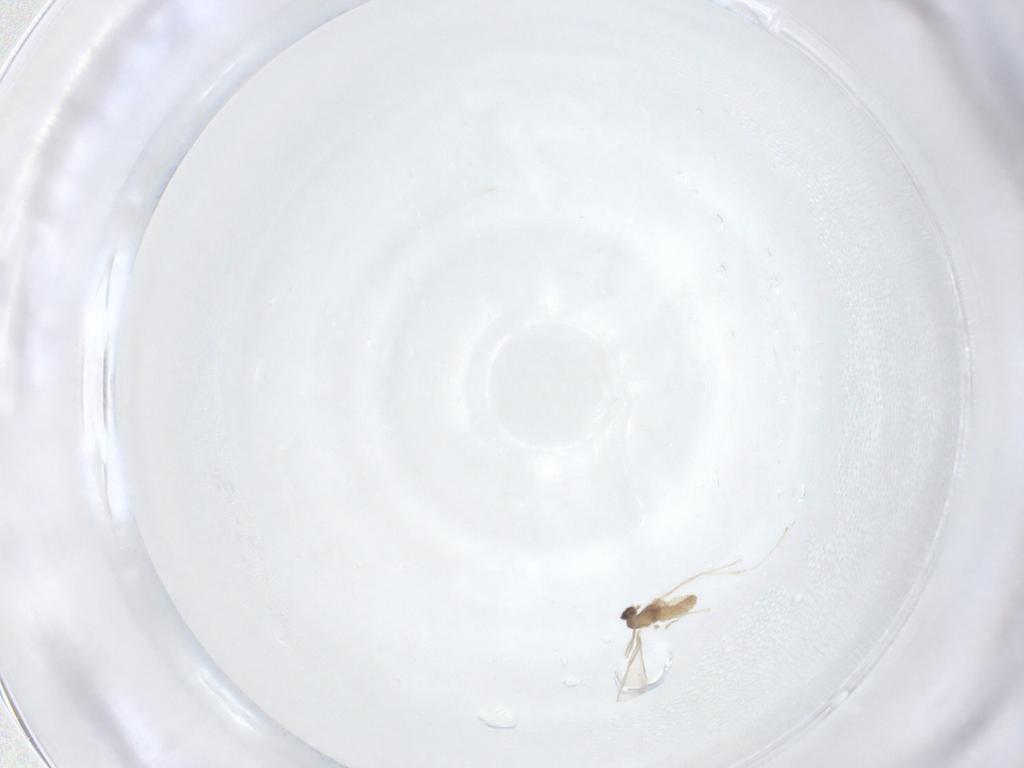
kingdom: Animalia
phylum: Arthropoda
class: Insecta
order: Diptera
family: Cecidomyiidae
